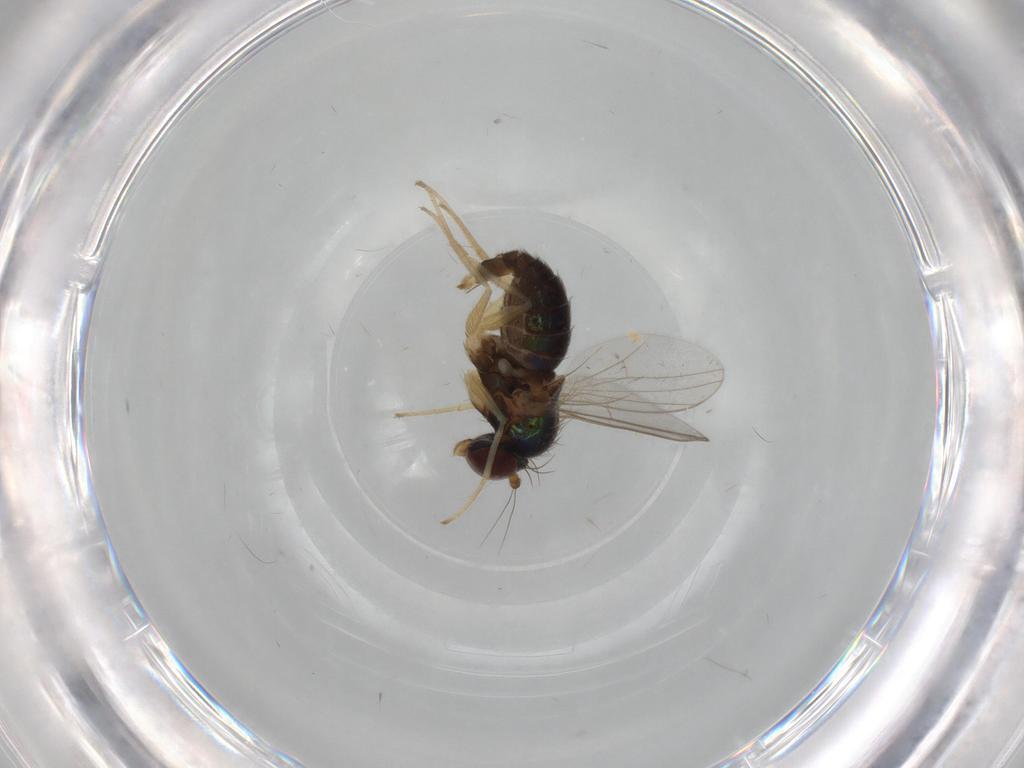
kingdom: Animalia
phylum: Arthropoda
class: Insecta
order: Diptera
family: Dolichopodidae
